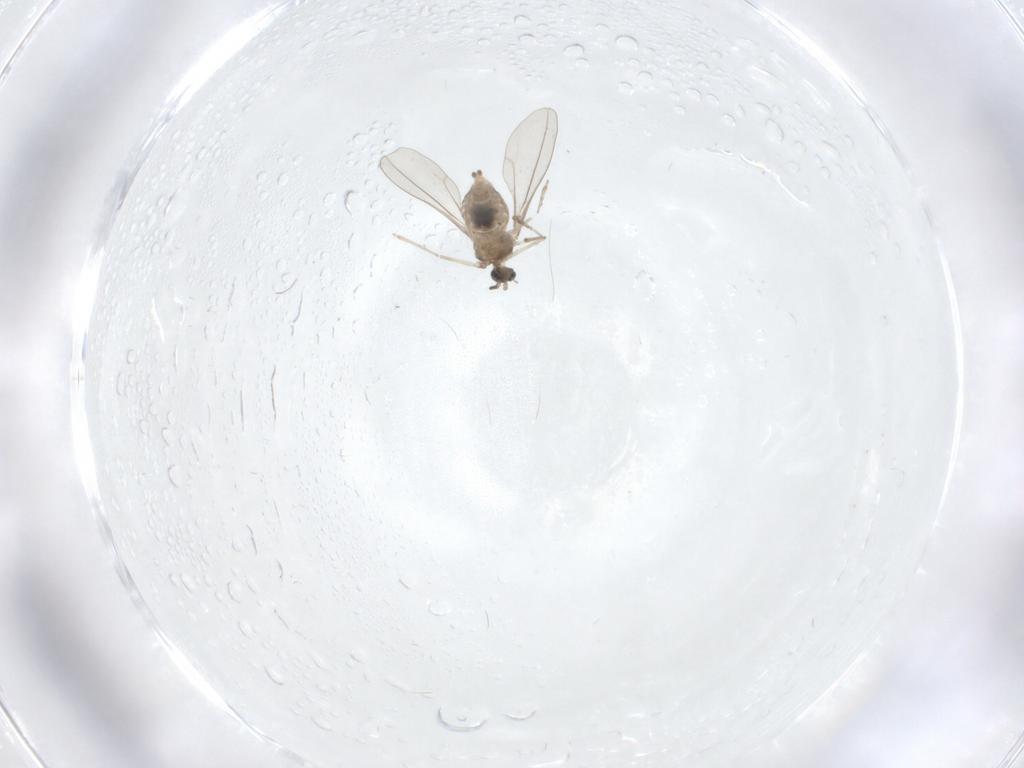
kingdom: Animalia
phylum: Arthropoda
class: Insecta
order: Diptera
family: Cecidomyiidae
